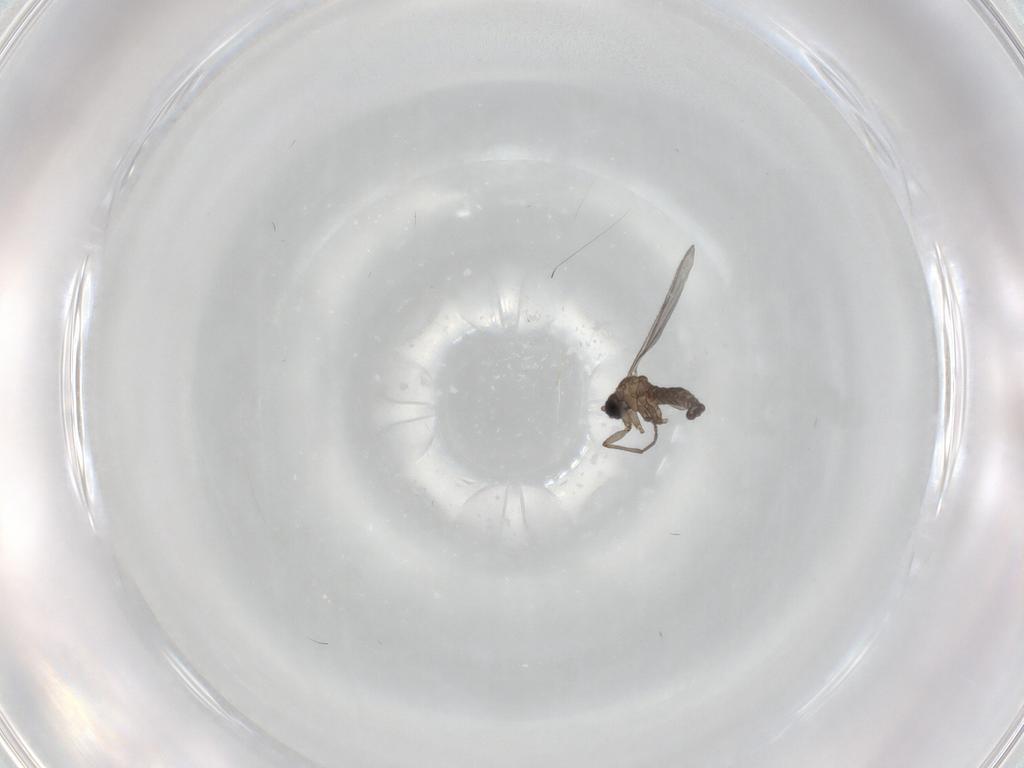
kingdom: Animalia
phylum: Arthropoda
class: Insecta
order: Diptera
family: Sciaridae
